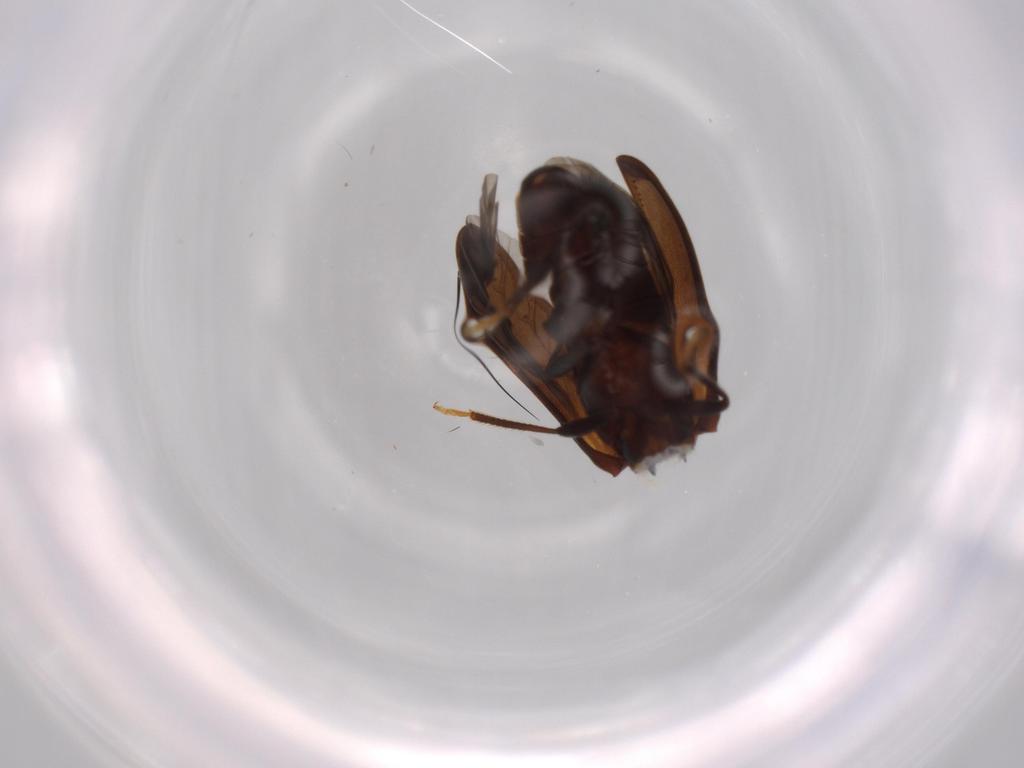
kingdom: Animalia
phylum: Arthropoda
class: Insecta
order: Coleoptera
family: Ptilodactylidae
